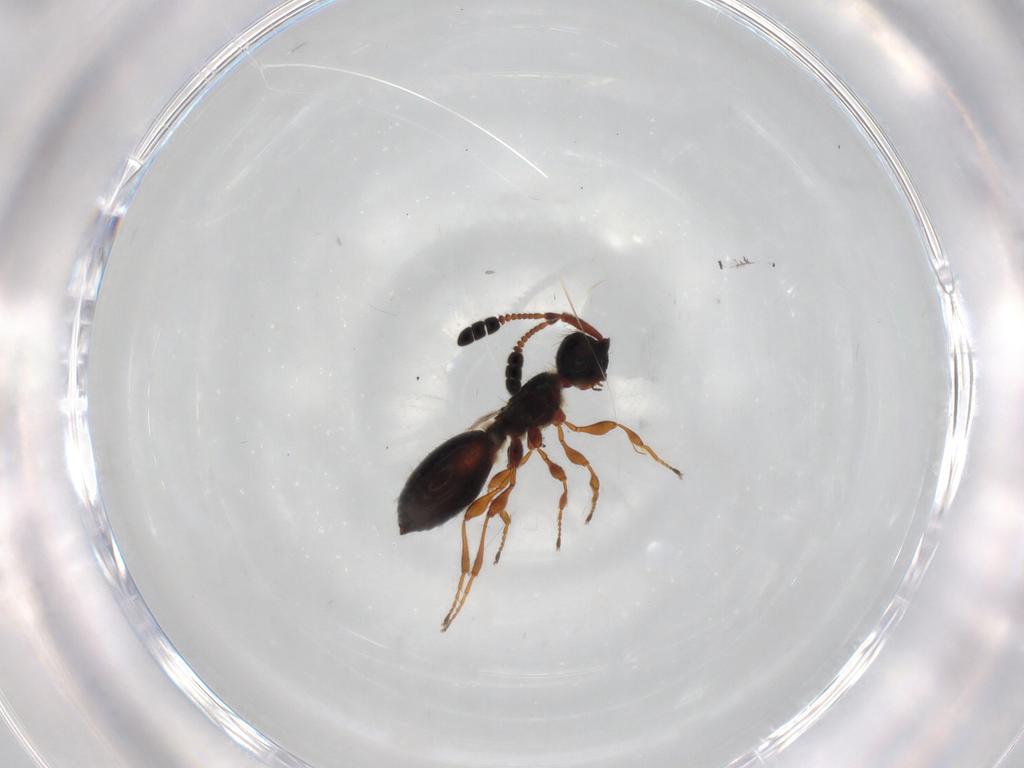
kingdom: Animalia
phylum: Arthropoda
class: Insecta
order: Hymenoptera
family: Diapriidae
